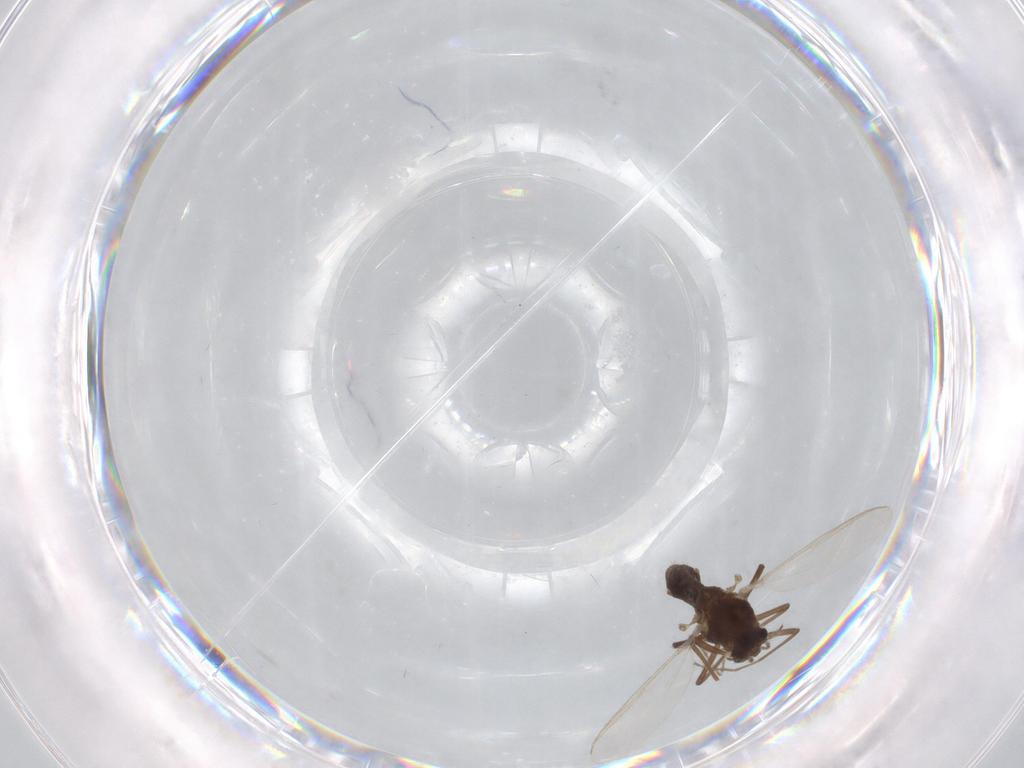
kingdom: Animalia
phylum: Arthropoda
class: Insecta
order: Diptera
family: Chironomidae
